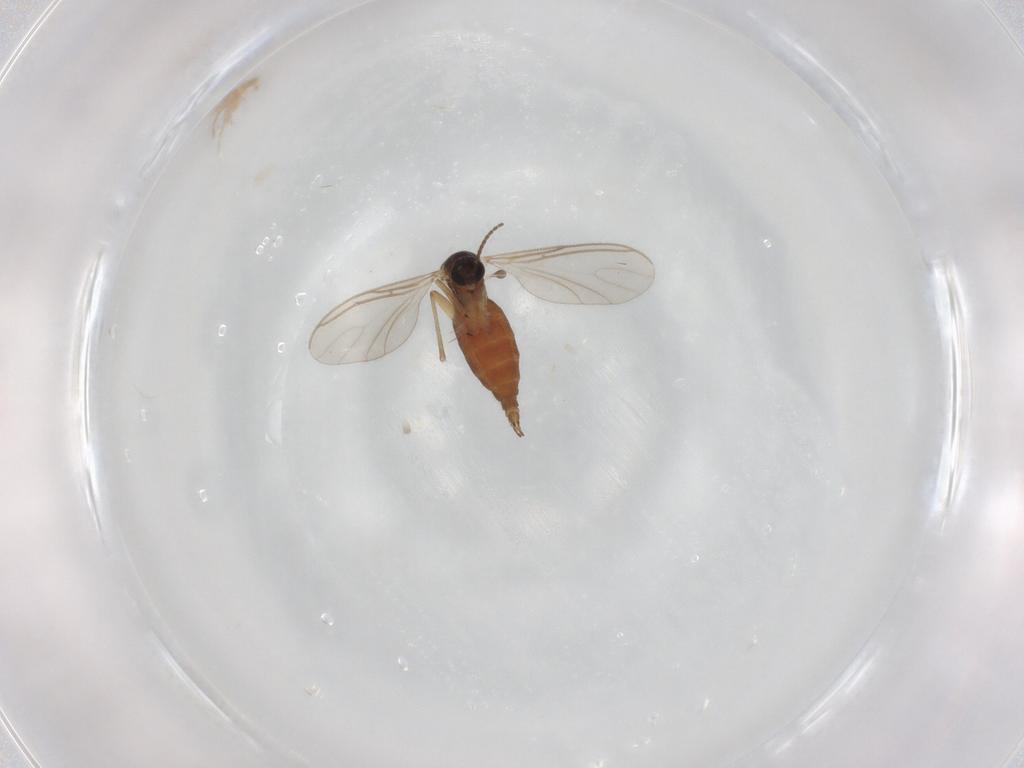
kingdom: Animalia
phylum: Arthropoda
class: Insecta
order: Diptera
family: Sciaridae
